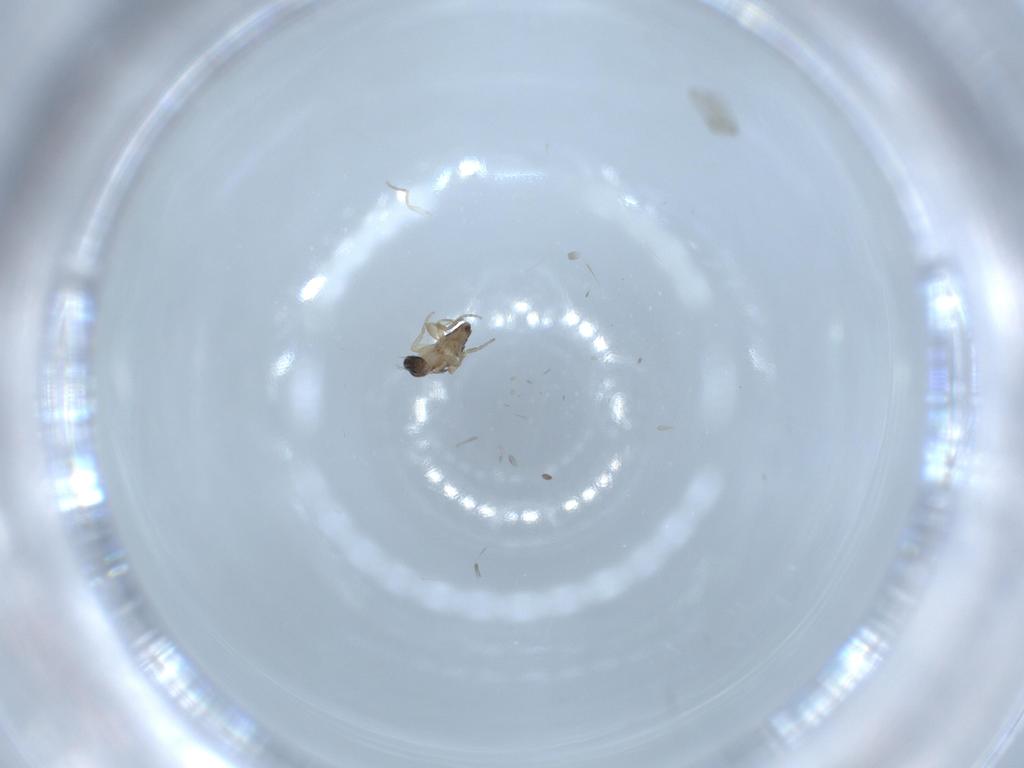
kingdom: Animalia
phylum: Arthropoda
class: Insecta
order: Diptera
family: Phoridae
